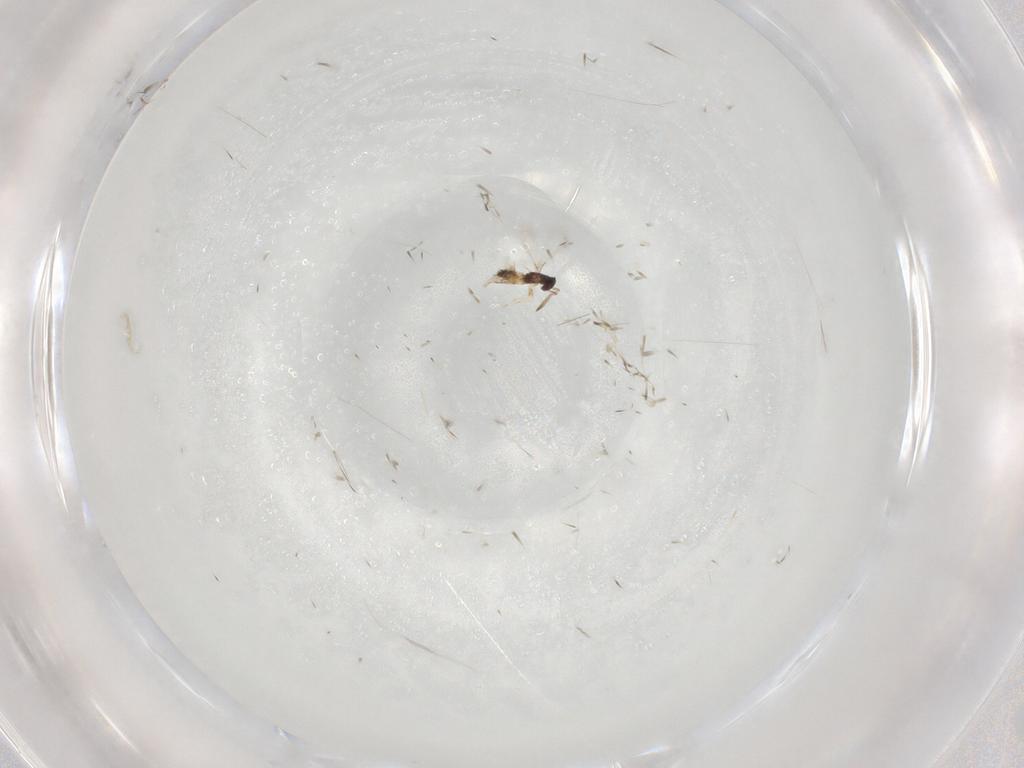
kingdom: Animalia
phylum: Arthropoda
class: Insecta
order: Hymenoptera
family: Mymaridae
